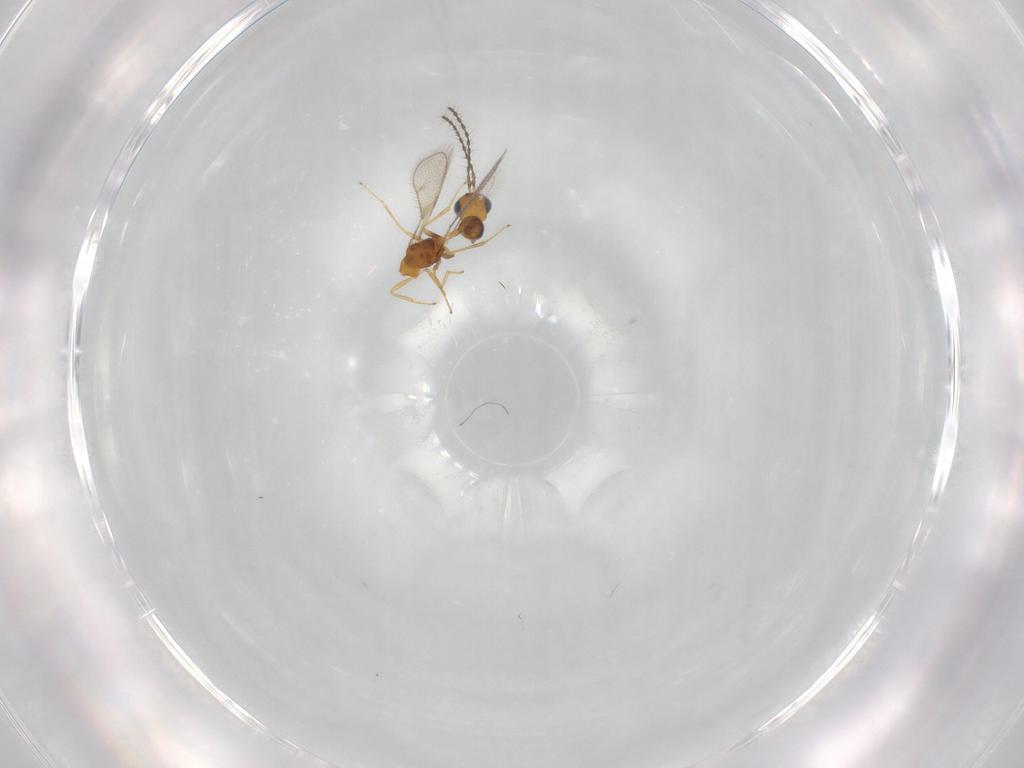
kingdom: Animalia
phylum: Arthropoda
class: Insecta
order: Hymenoptera
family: Diparidae
